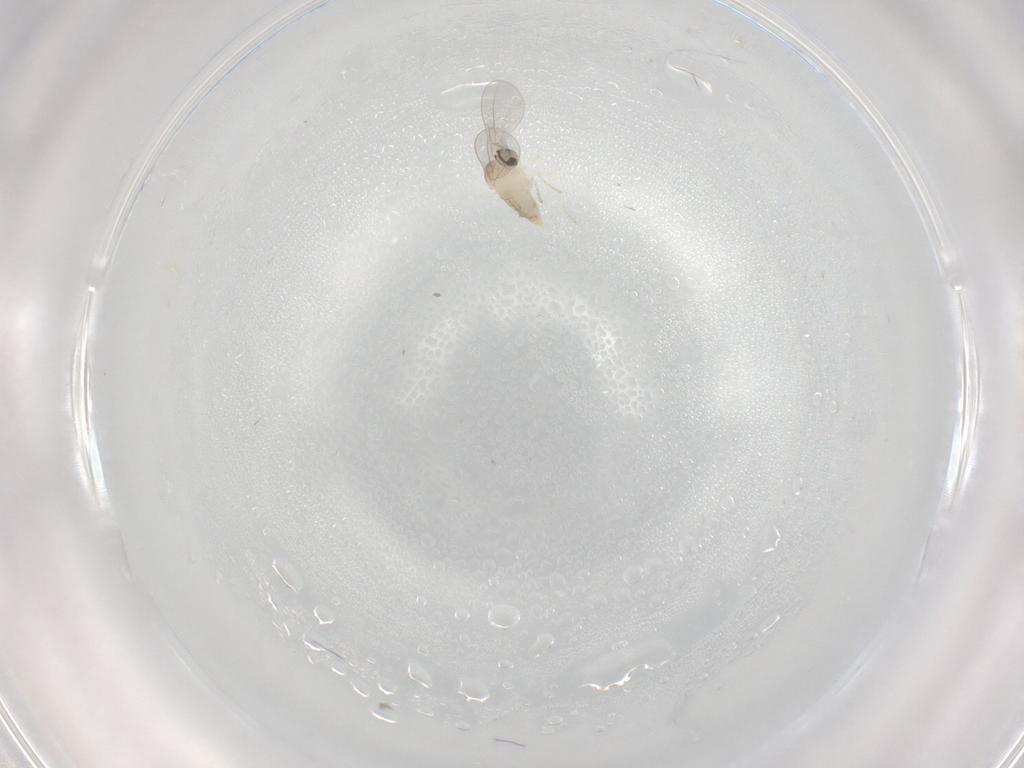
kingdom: Animalia
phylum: Arthropoda
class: Insecta
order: Diptera
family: Cecidomyiidae
